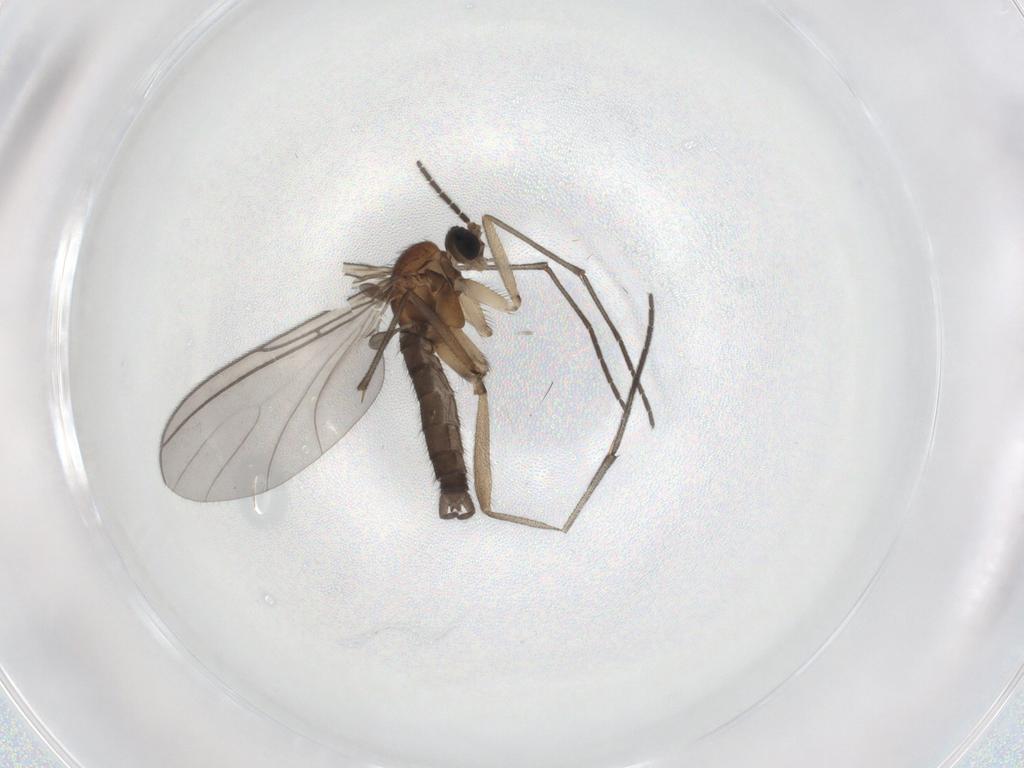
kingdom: Animalia
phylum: Arthropoda
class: Insecta
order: Diptera
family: Sciaridae
